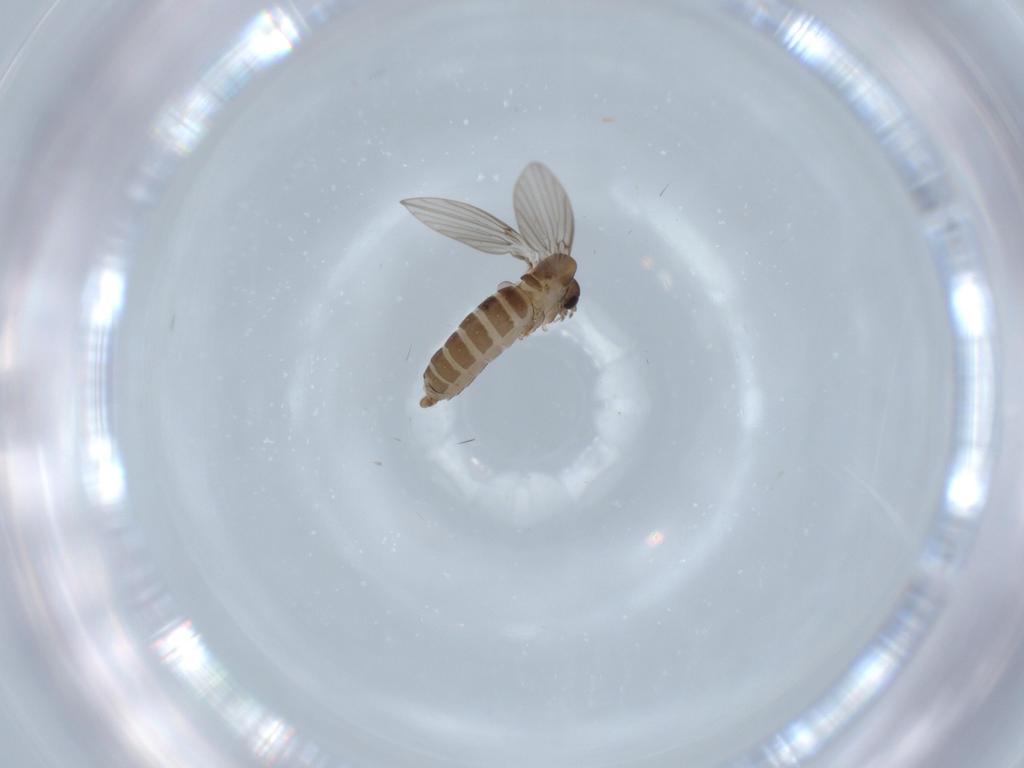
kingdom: Animalia
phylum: Arthropoda
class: Insecta
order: Diptera
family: Psychodidae
